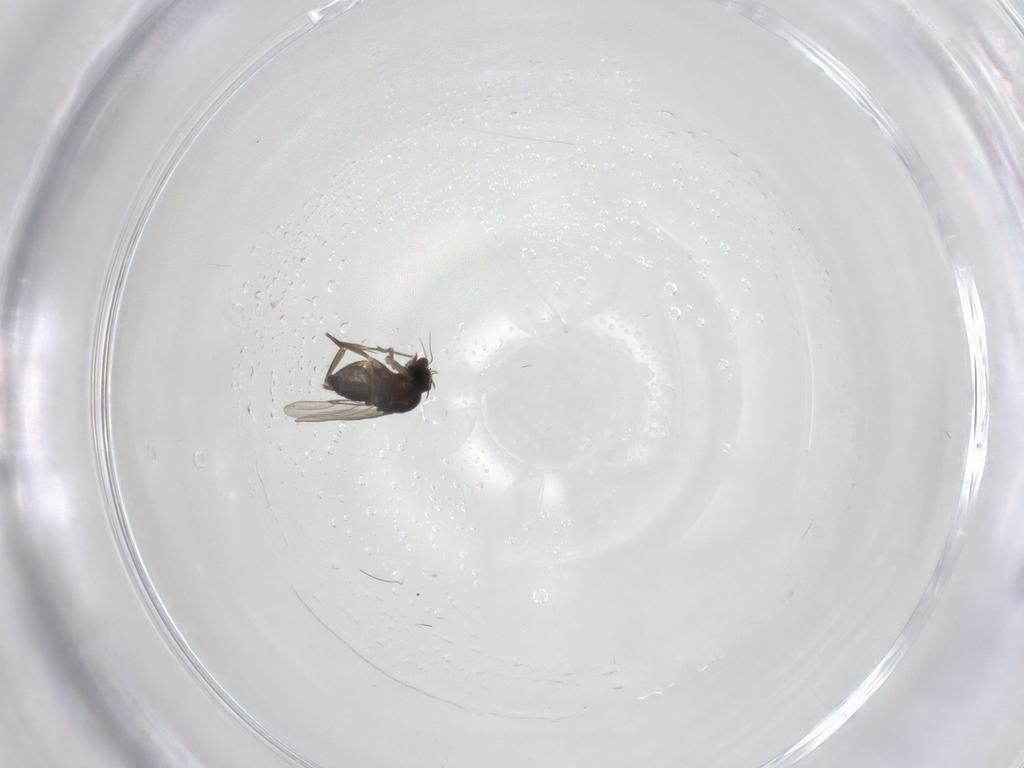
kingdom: Animalia
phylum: Arthropoda
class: Insecta
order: Diptera
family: Phoridae
